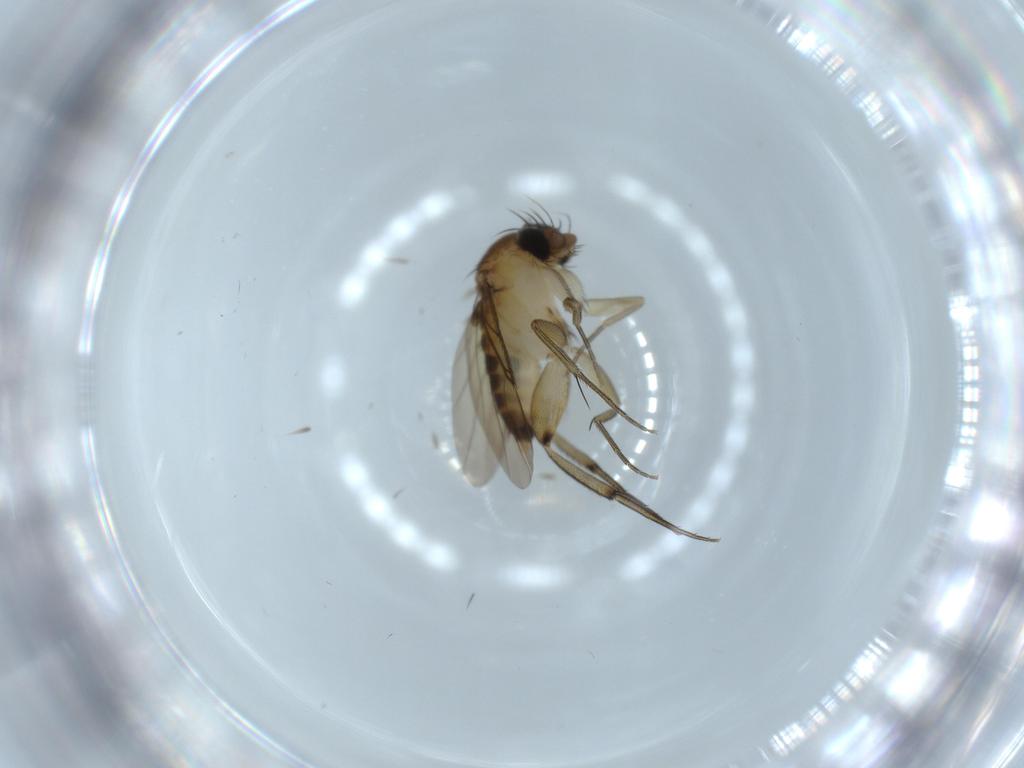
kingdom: Animalia
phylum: Arthropoda
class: Insecta
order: Diptera
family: Phoridae
